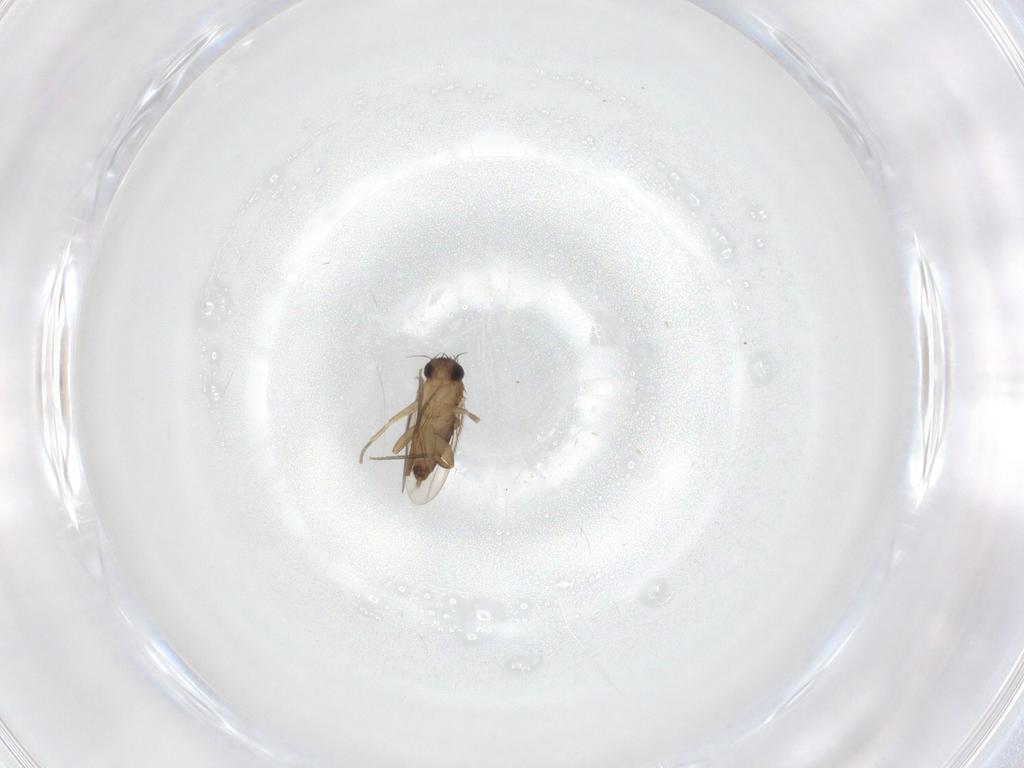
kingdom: Animalia
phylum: Arthropoda
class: Insecta
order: Diptera
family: Phoridae
